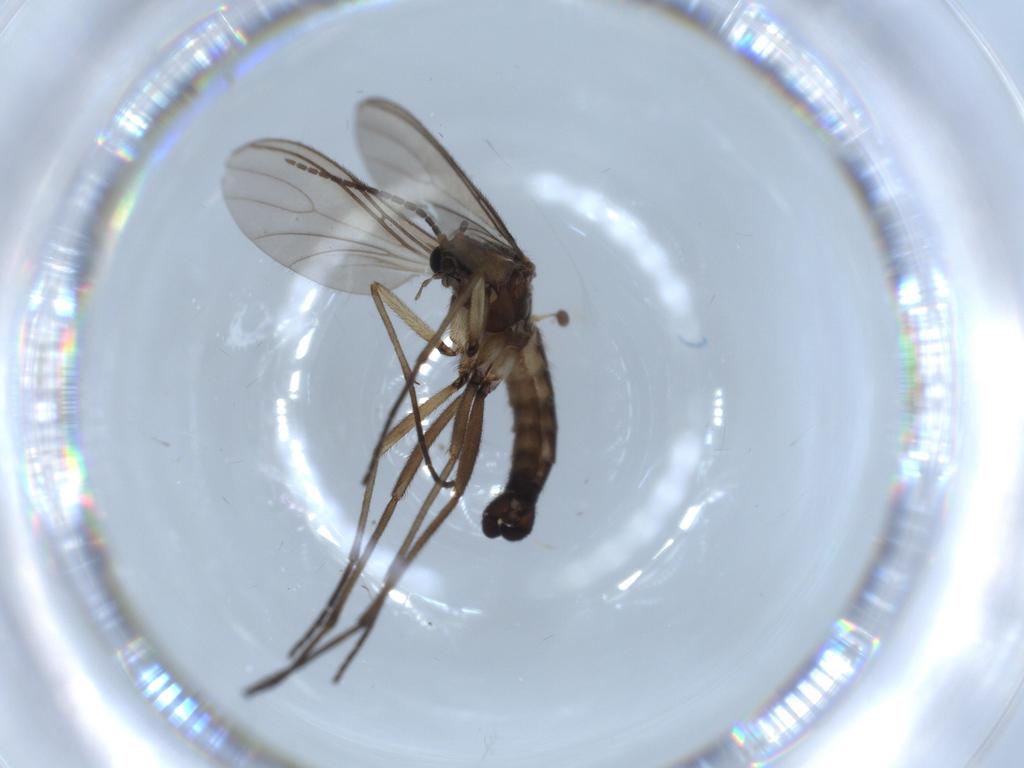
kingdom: Animalia
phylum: Arthropoda
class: Insecta
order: Diptera
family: Sciaridae
